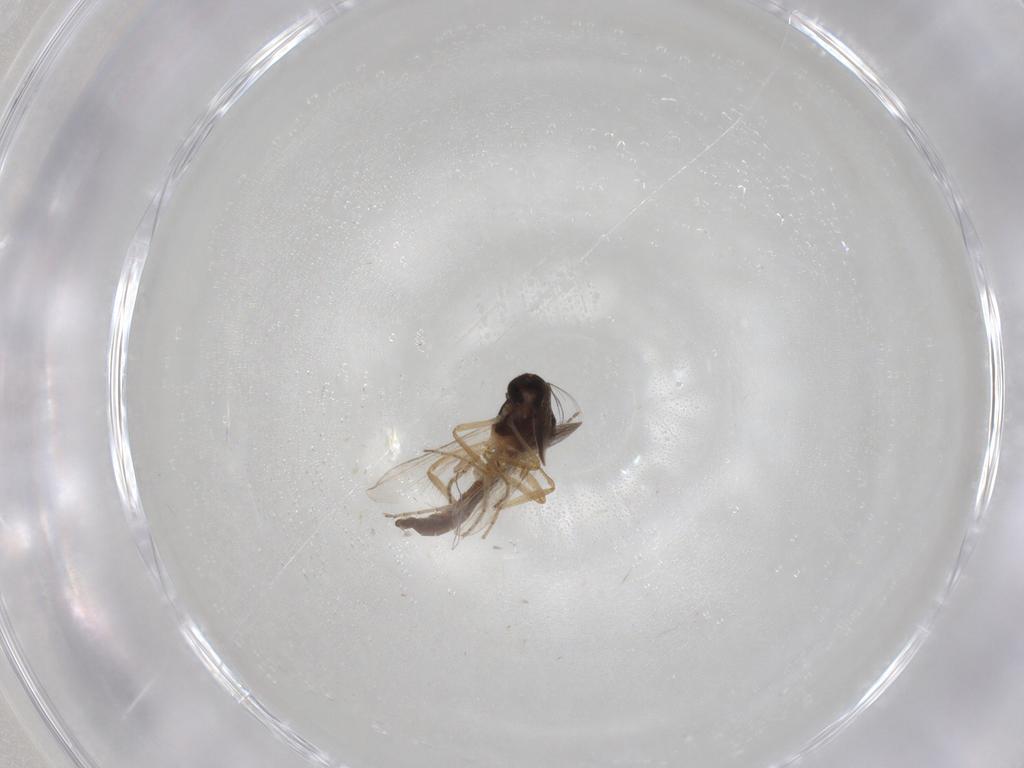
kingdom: Animalia
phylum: Arthropoda
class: Insecta
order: Diptera
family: Ceratopogonidae
